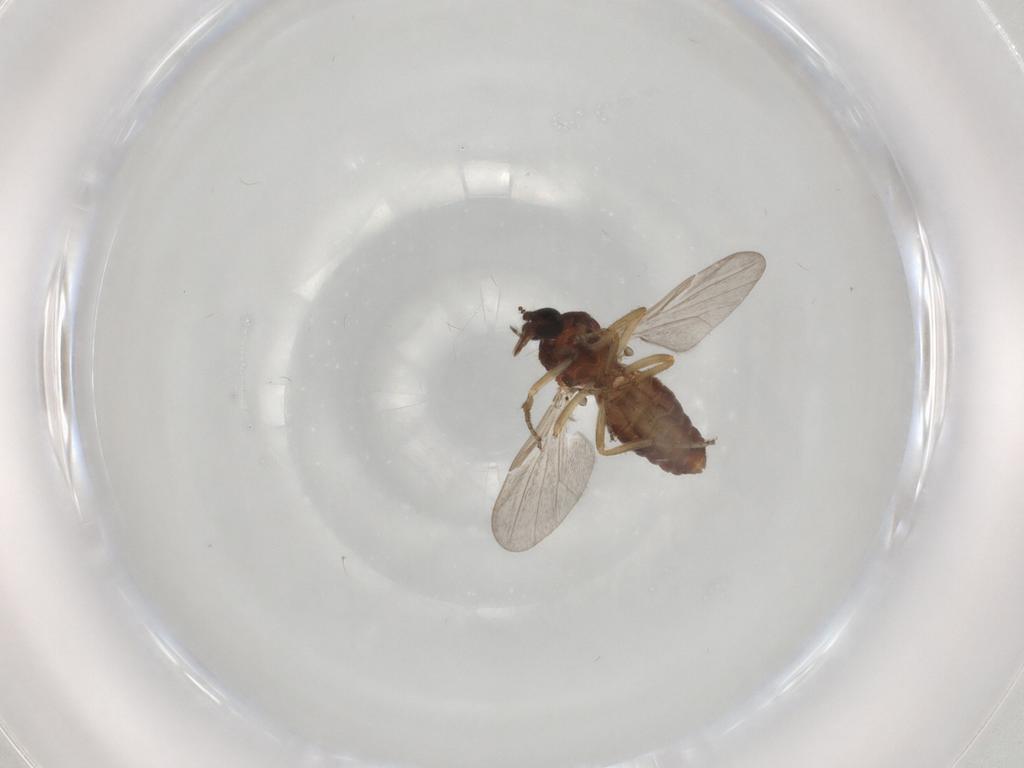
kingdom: Animalia
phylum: Arthropoda
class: Insecta
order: Diptera
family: Ceratopogonidae
